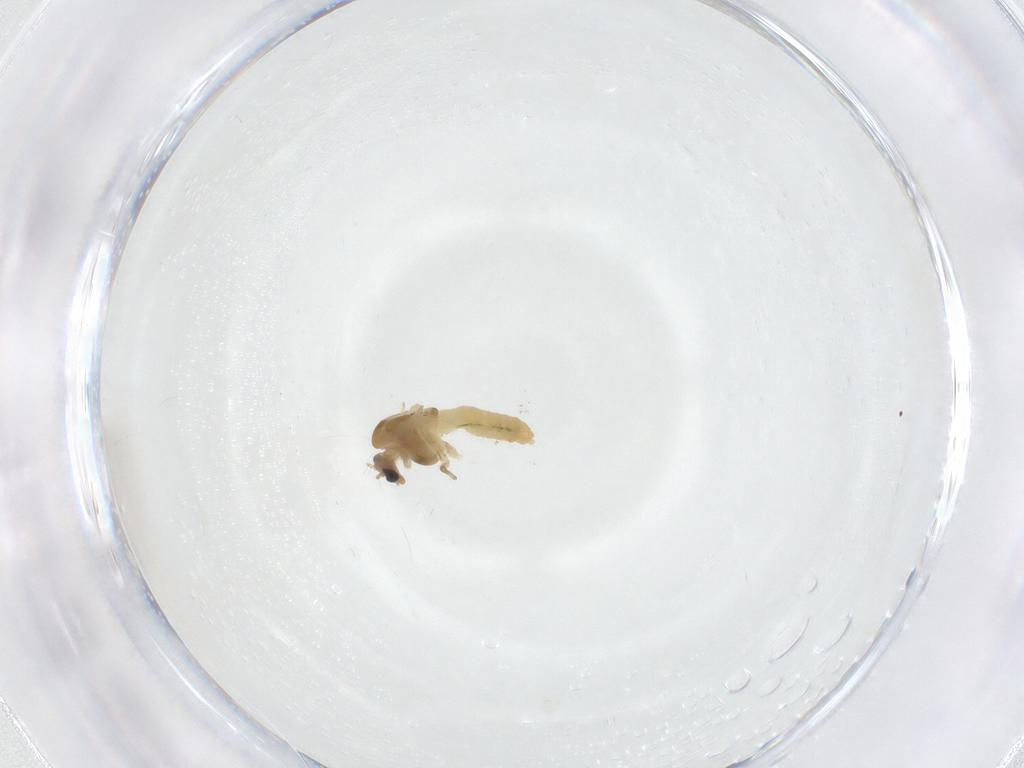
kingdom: Animalia
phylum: Arthropoda
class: Insecta
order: Diptera
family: Chironomidae
